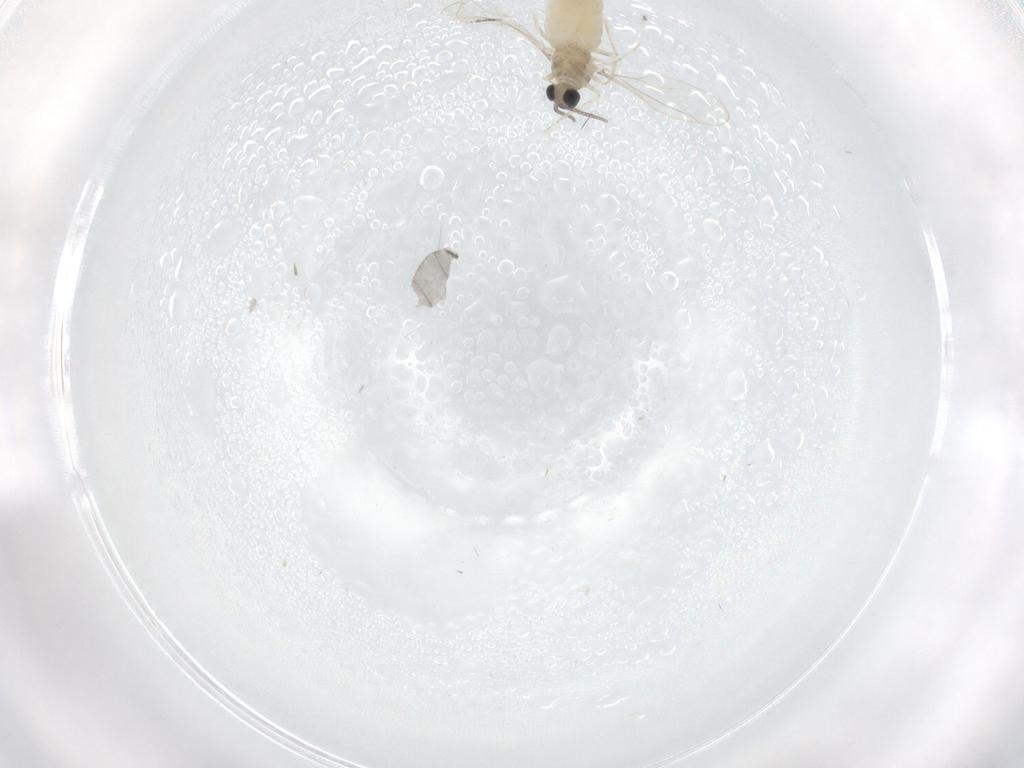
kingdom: Animalia
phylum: Arthropoda
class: Insecta
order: Diptera
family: Cecidomyiidae
